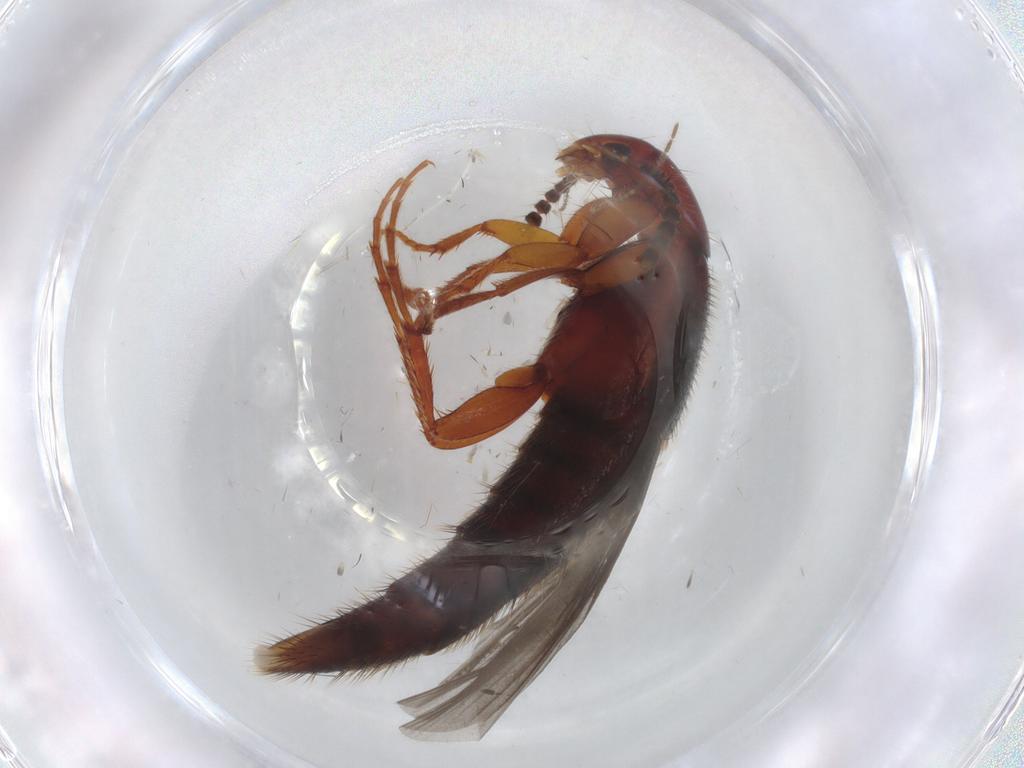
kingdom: Animalia
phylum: Arthropoda
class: Insecta
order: Coleoptera
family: Staphylinidae
